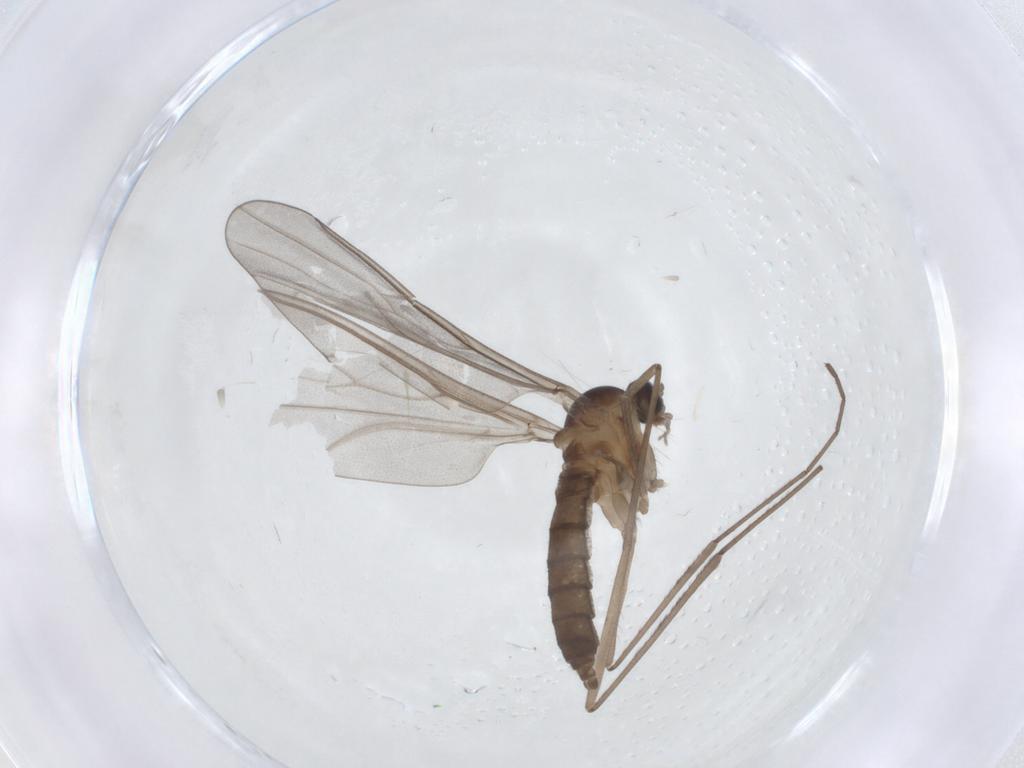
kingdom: Animalia
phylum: Arthropoda
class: Insecta
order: Diptera
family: Cecidomyiidae
